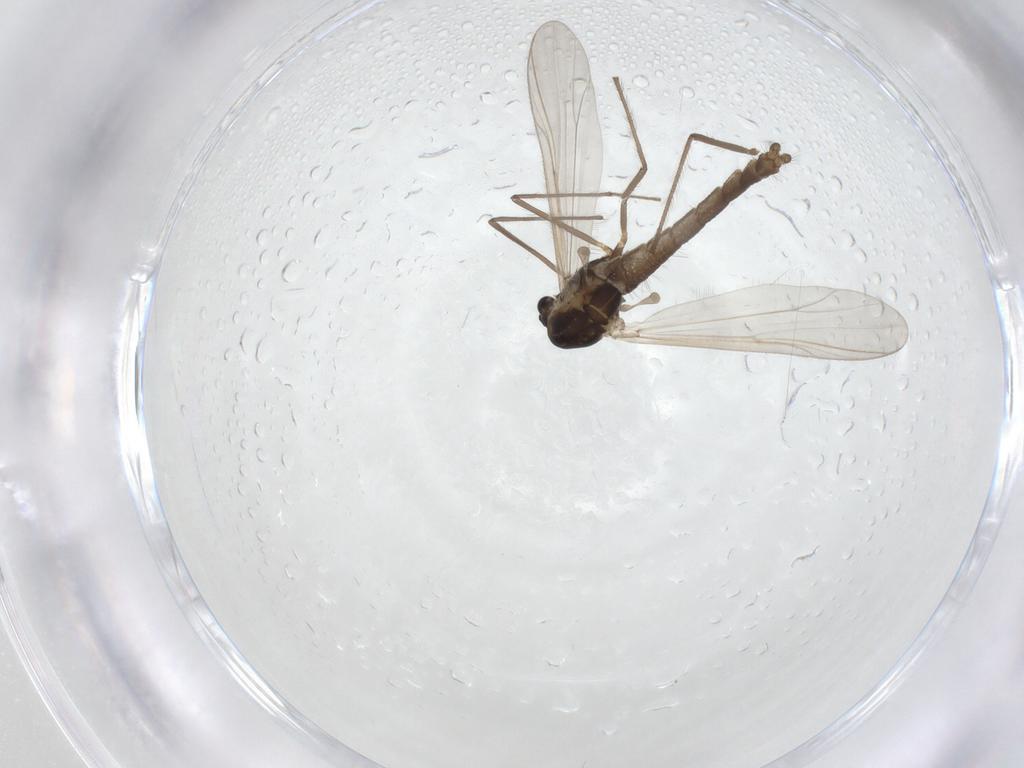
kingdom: Animalia
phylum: Arthropoda
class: Insecta
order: Diptera
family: Chironomidae
